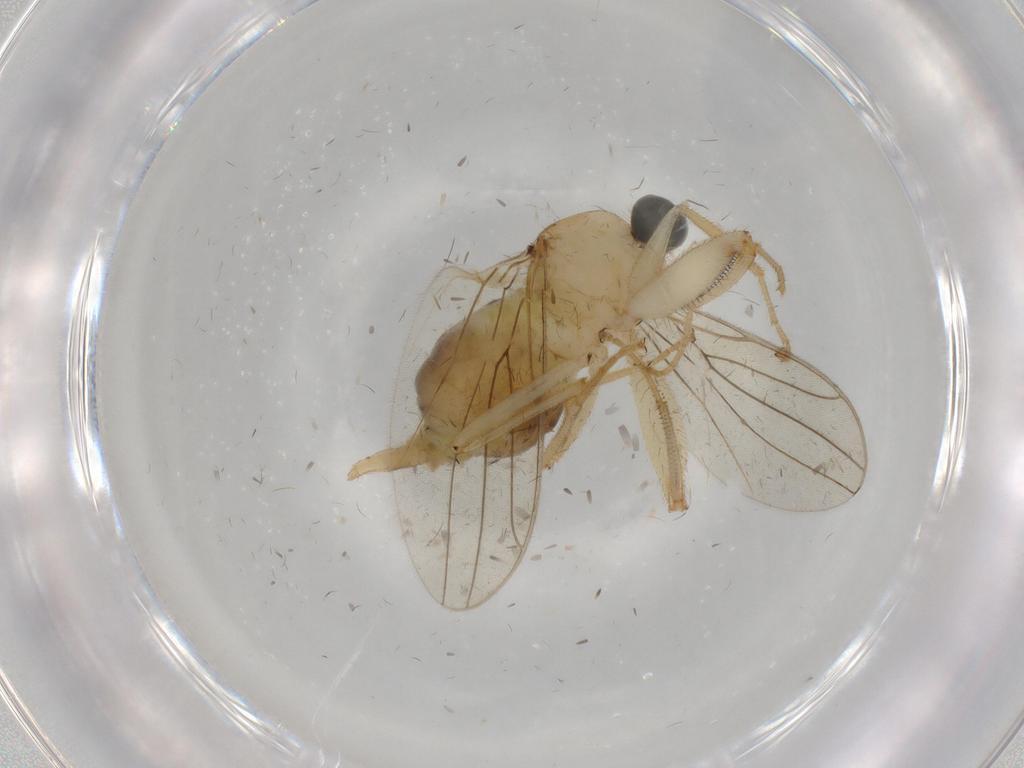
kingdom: Animalia
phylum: Arthropoda
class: Insecta
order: Diptera
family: Hybotidae
